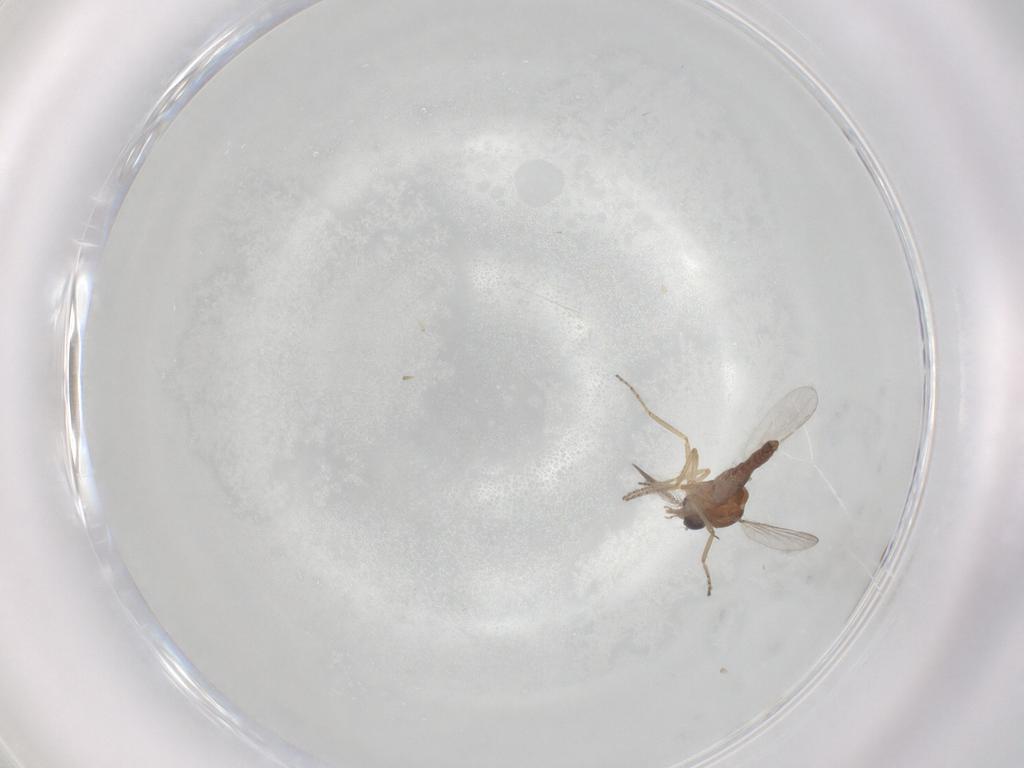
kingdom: Animalia
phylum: Arthropoda
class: Insecta
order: Diptera
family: Ceratopogonidae
